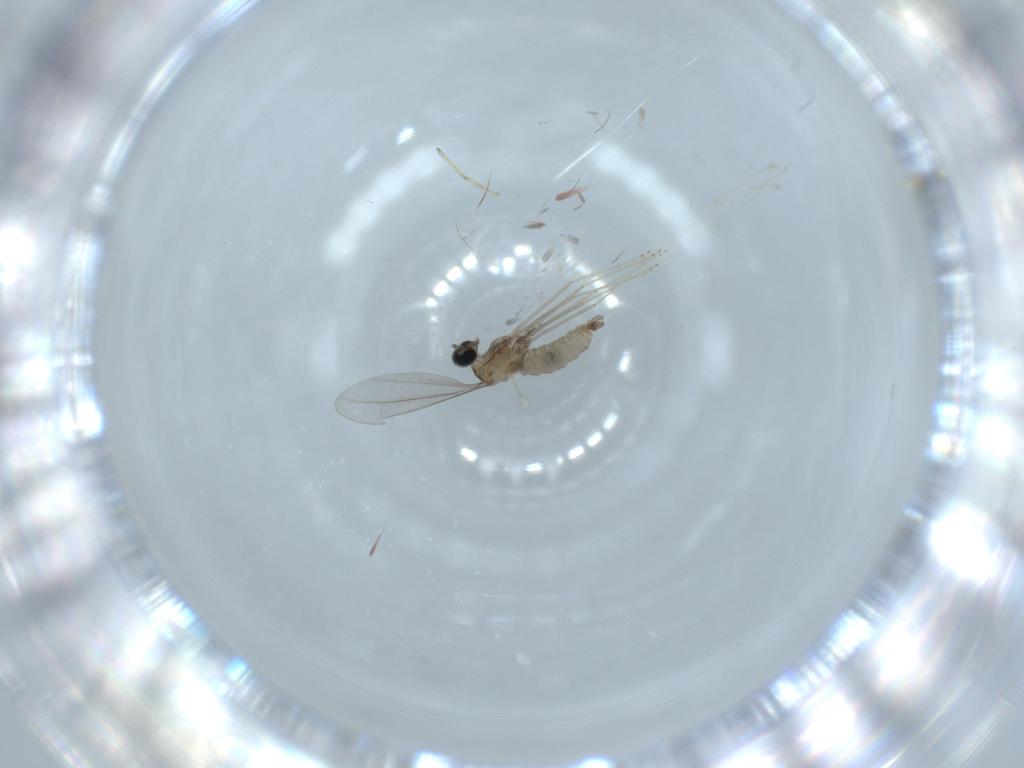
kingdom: Animalia
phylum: Arthropoda
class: Insecta
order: Diptera
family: Cecidomyiidae
